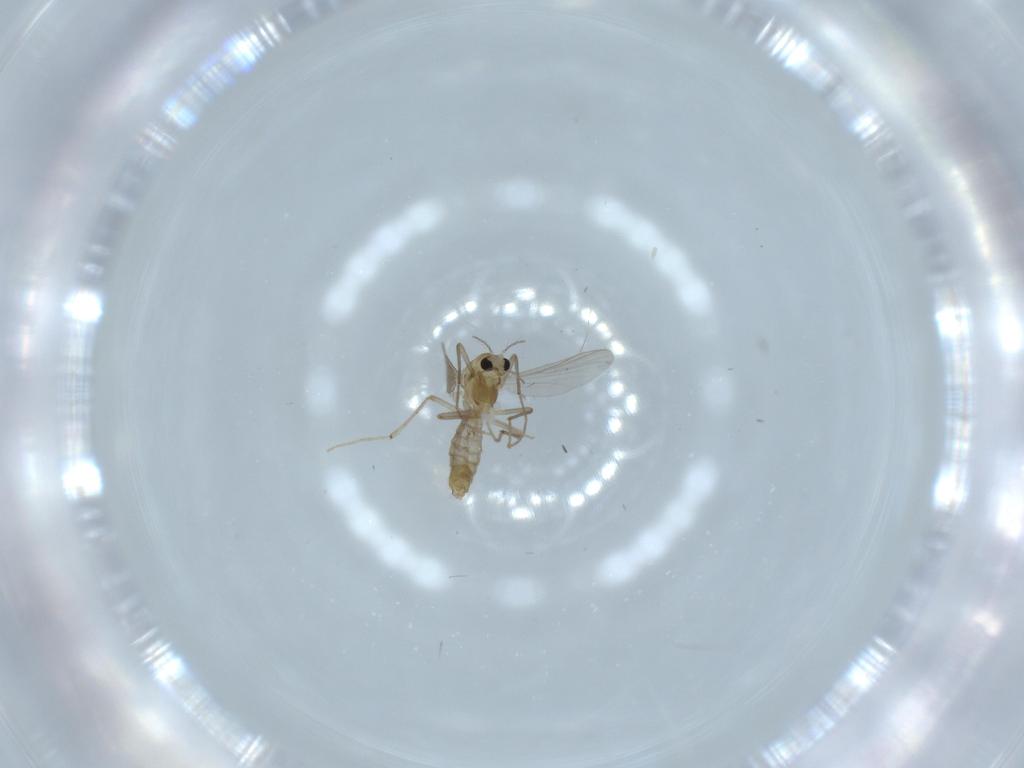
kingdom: Animalia
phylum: Arthropoda
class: Insecta
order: Diptera
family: Chironomidae
